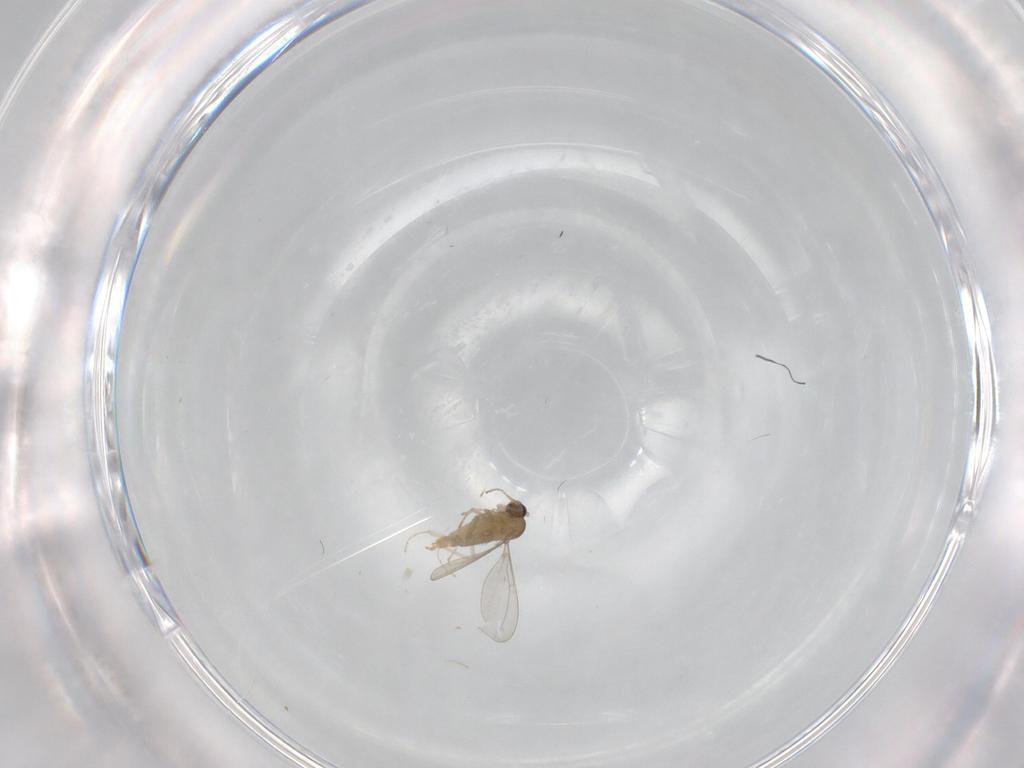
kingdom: Animalia
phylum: Arthropoda
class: Insecta
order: Diptera
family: Cecidomyiidae
